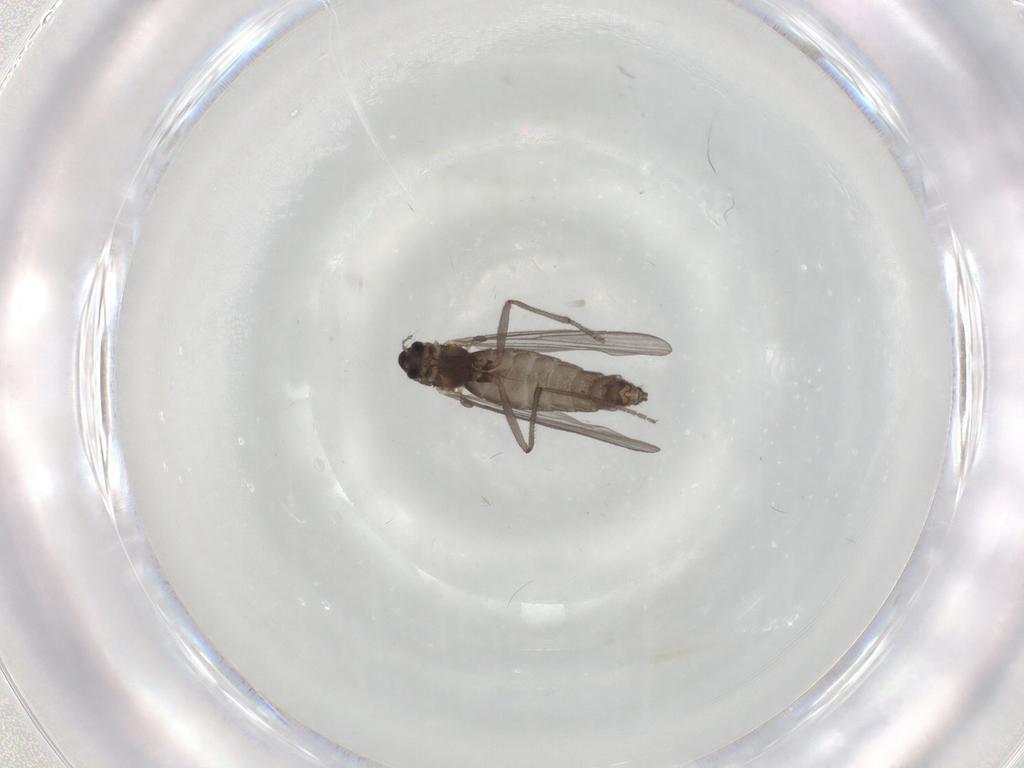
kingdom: Animalia
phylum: Arthropoda
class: Insecta
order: Diptera
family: Chironomidae
